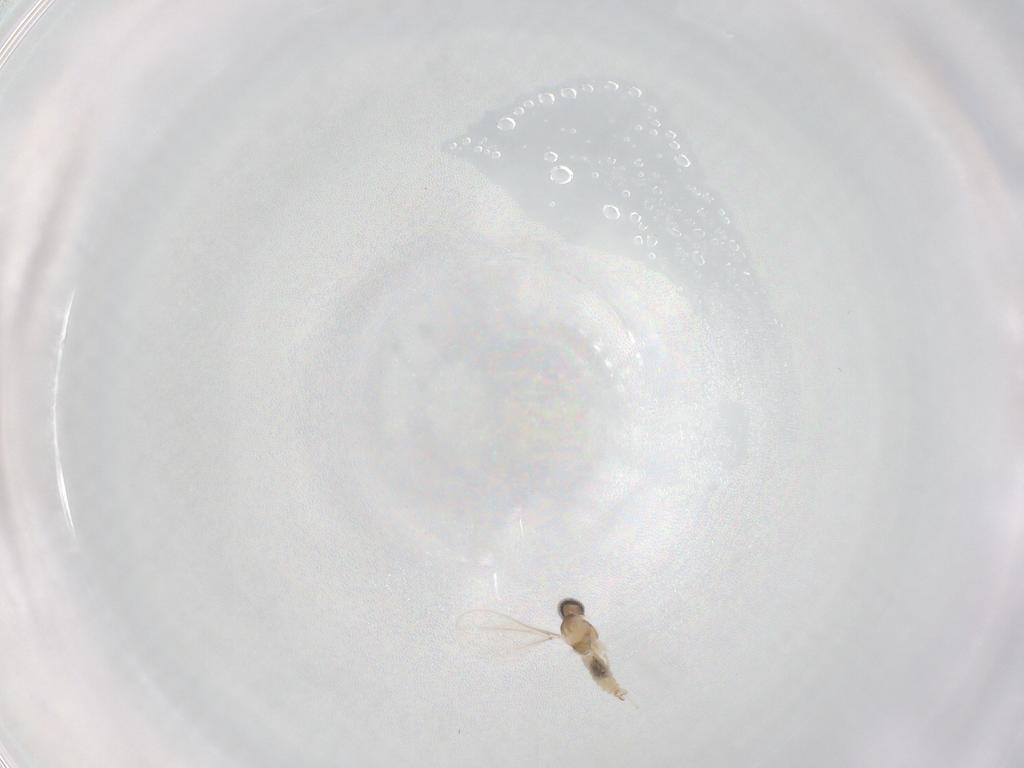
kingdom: Animalia
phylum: Arthropoda
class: Insecta
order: Diptera
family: Cecidomyiidae
